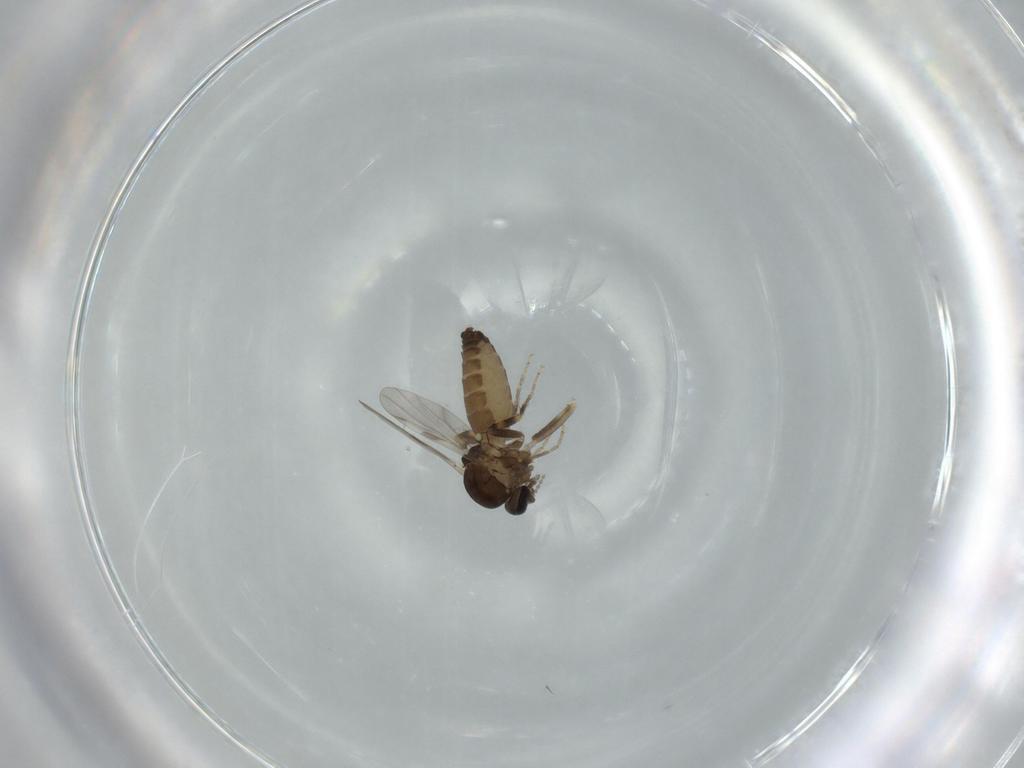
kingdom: Animalia
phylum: Arthropoda
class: Insecta
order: Diptera
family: Ceratopogonidae
